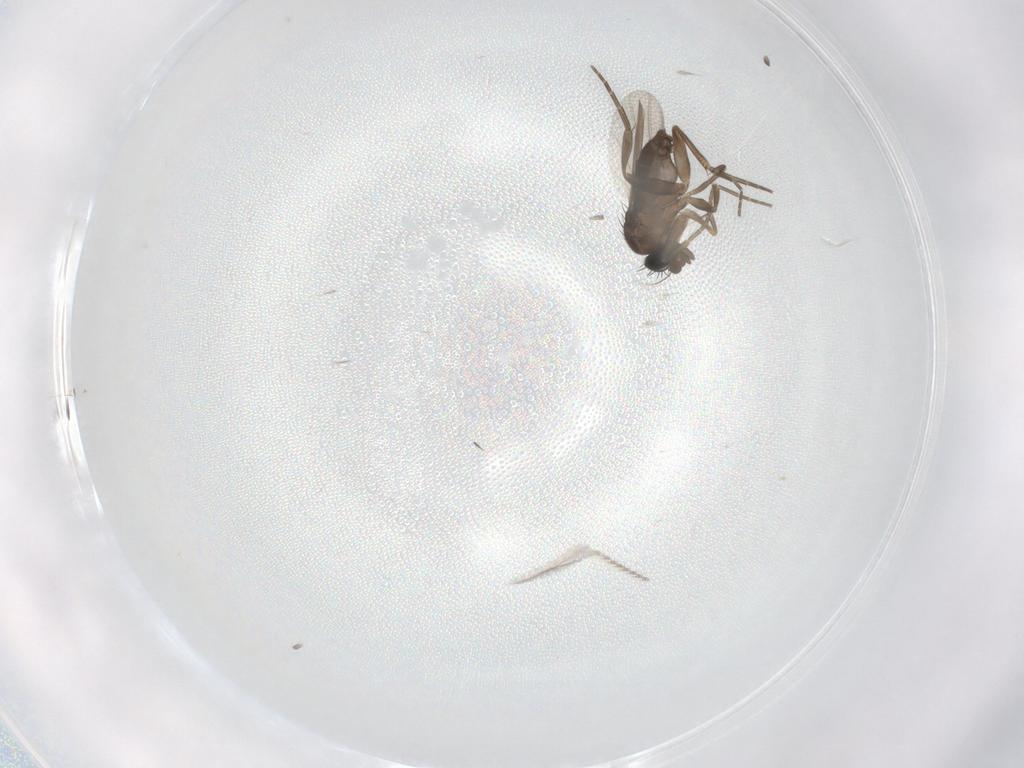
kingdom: Animalia
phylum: Arthropoda
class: Insecta
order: Diptera
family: Phoridae
